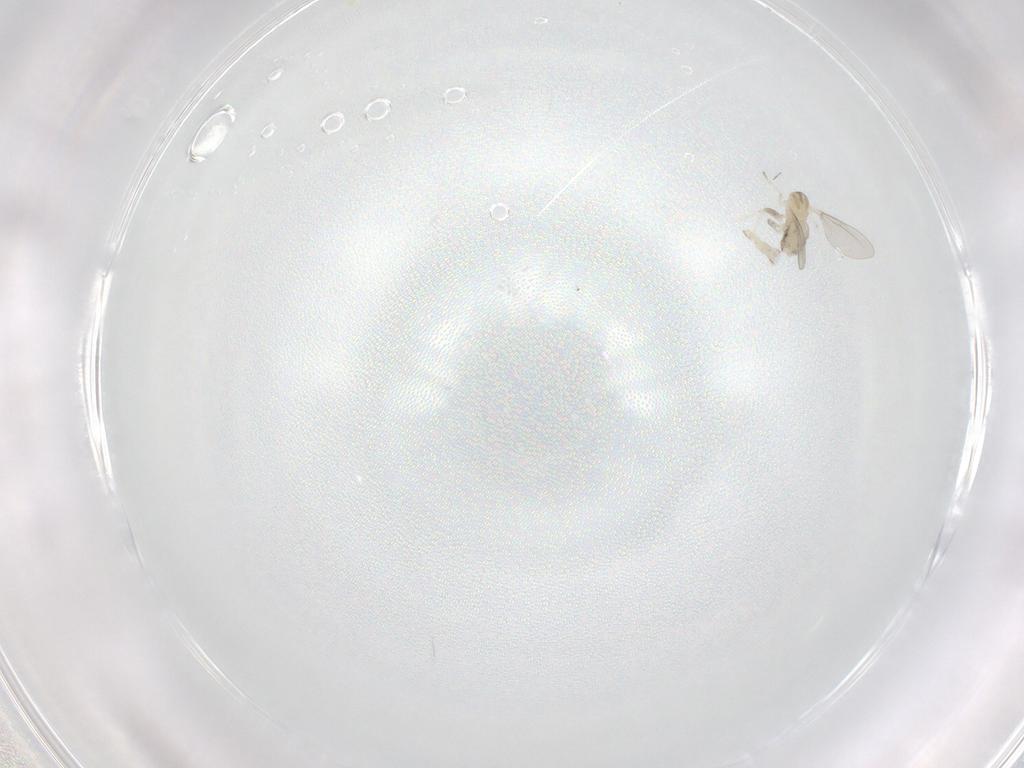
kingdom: Animalia
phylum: Arthropoda
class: Insecta
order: Diptera
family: Cecidomyiidae
